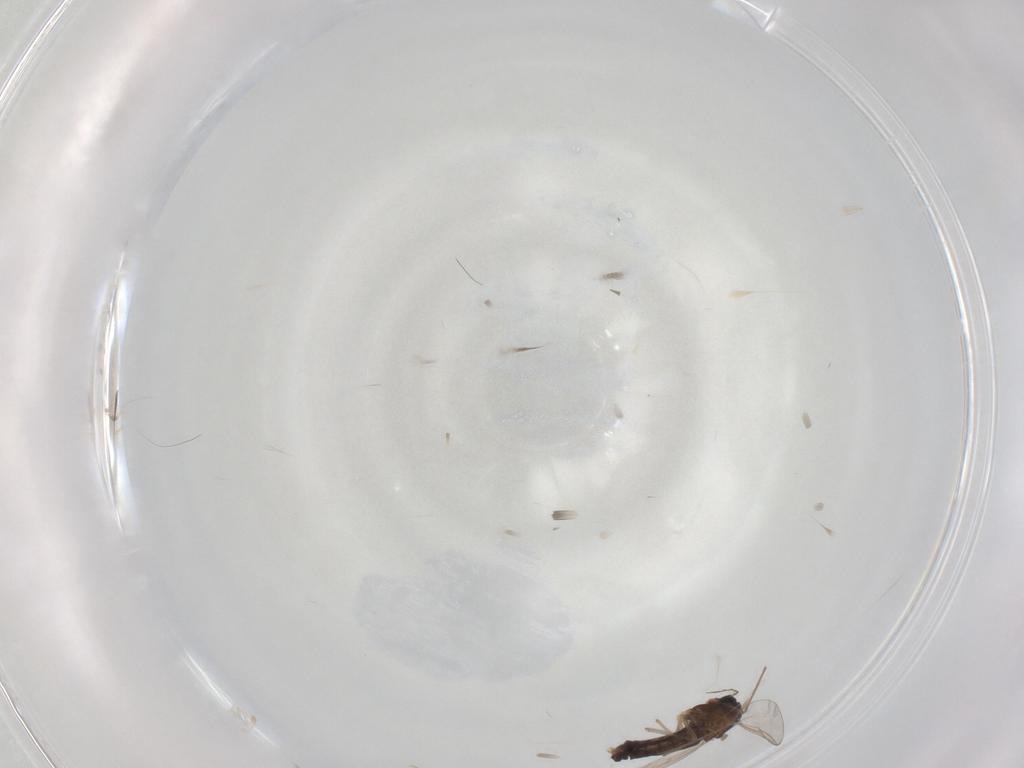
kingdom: Animalia
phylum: Arthropoda
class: Insecta
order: Diptera
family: Chironomidae
